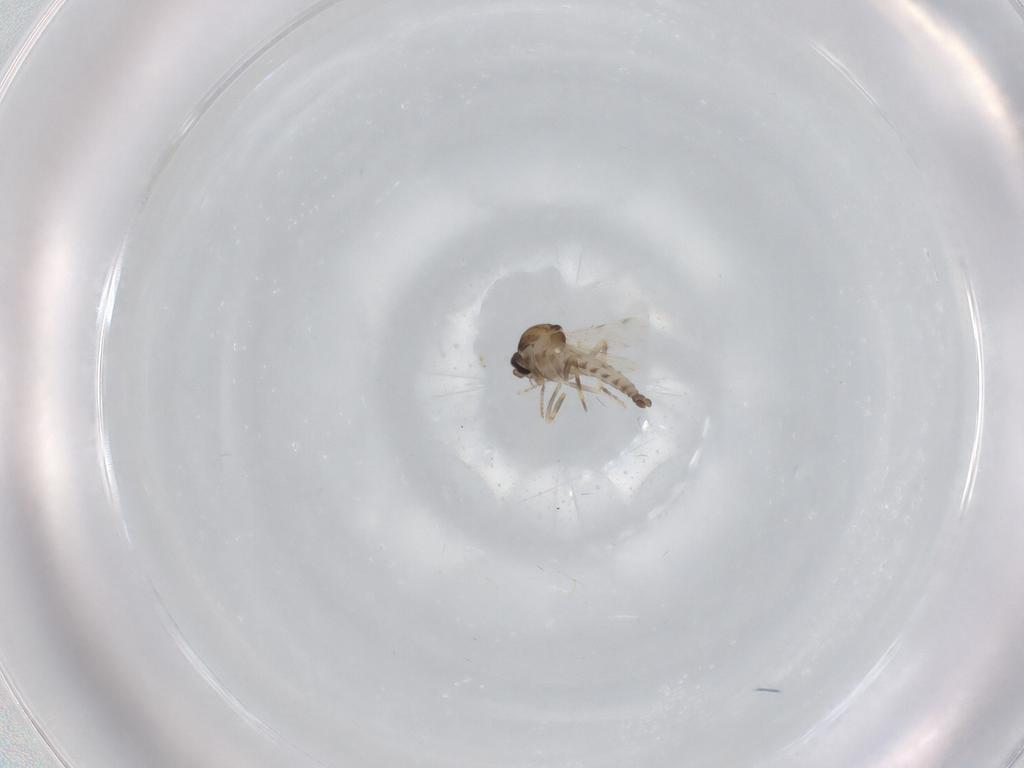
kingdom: Animalia
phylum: Arthropoda
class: Insecta
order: Diptera
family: Ceratopogonidae
